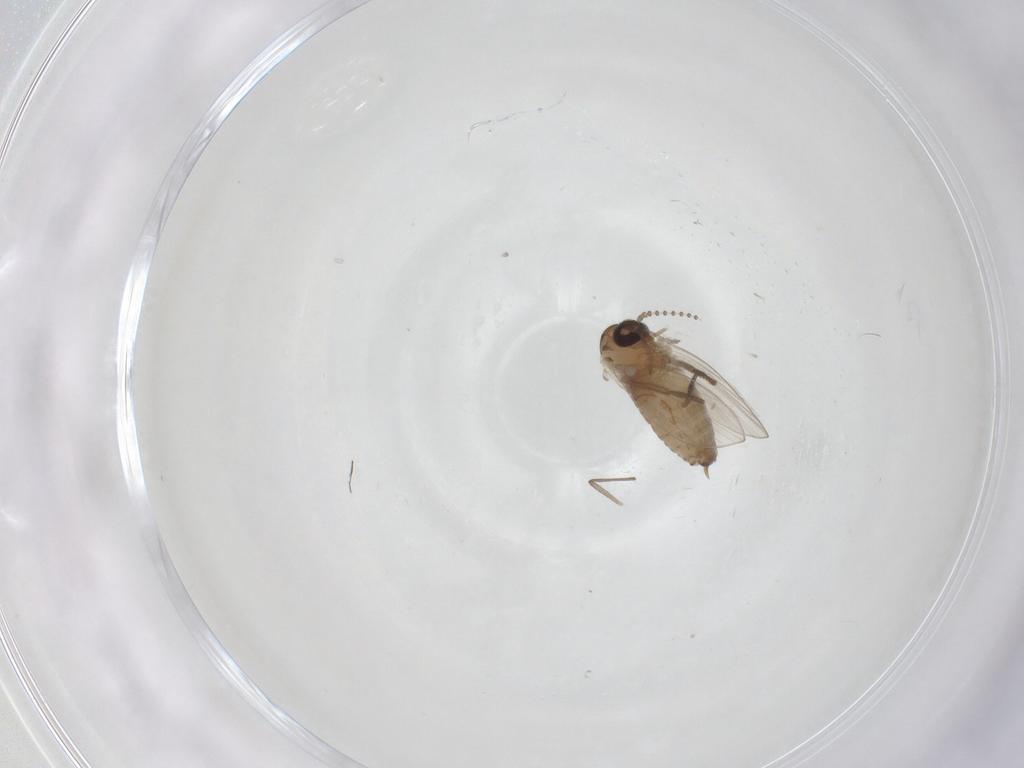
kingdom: Animalia
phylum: Arthropoda
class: Insecta
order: Diptera
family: Psychodidae
